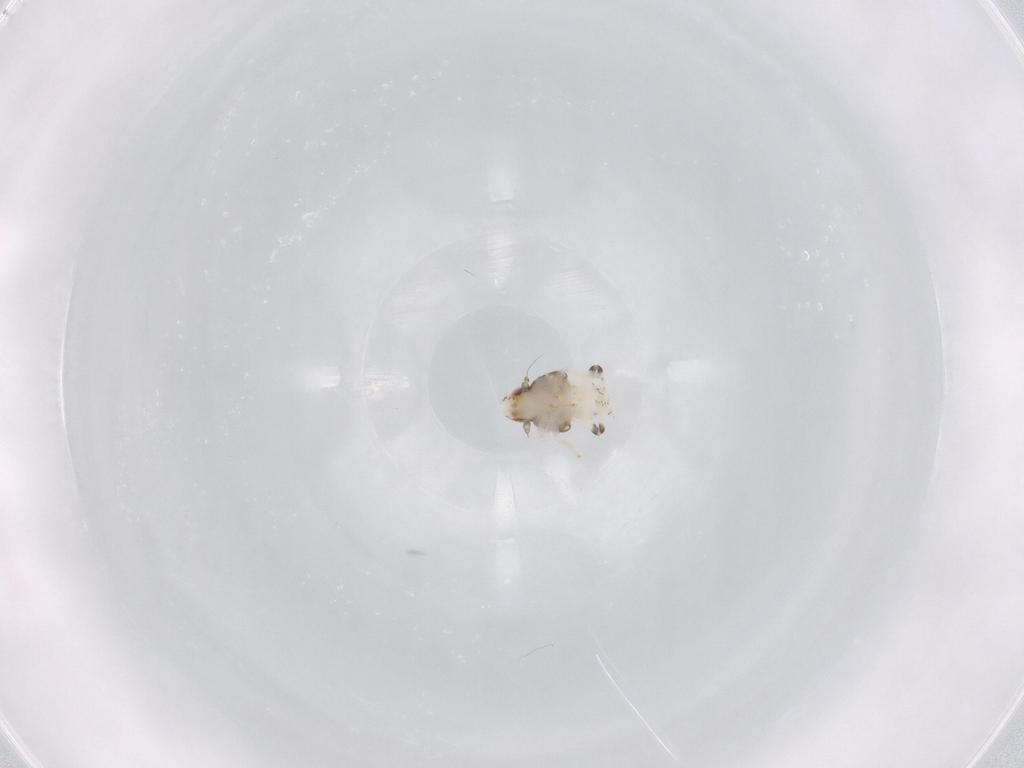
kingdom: Animalia
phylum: Arthropoda
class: Insecta
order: Hemiptera
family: Nogodinidae
